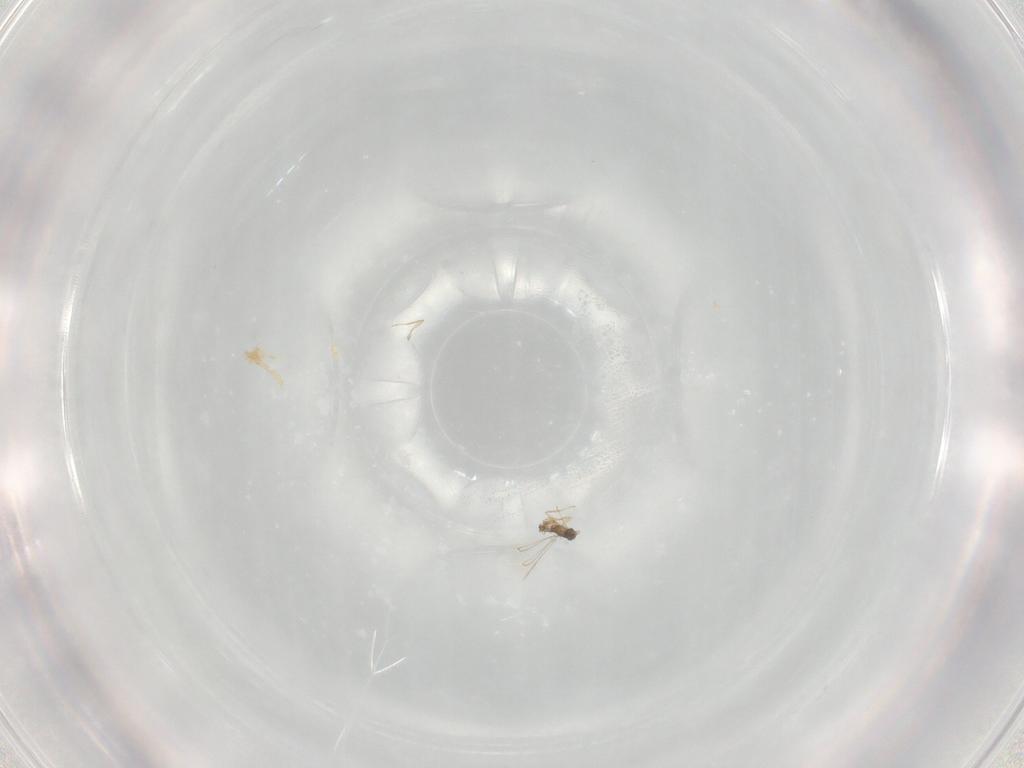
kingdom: Animalia
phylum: Arthropoda
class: Insecta
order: Hymenoptera
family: Mymaridae
